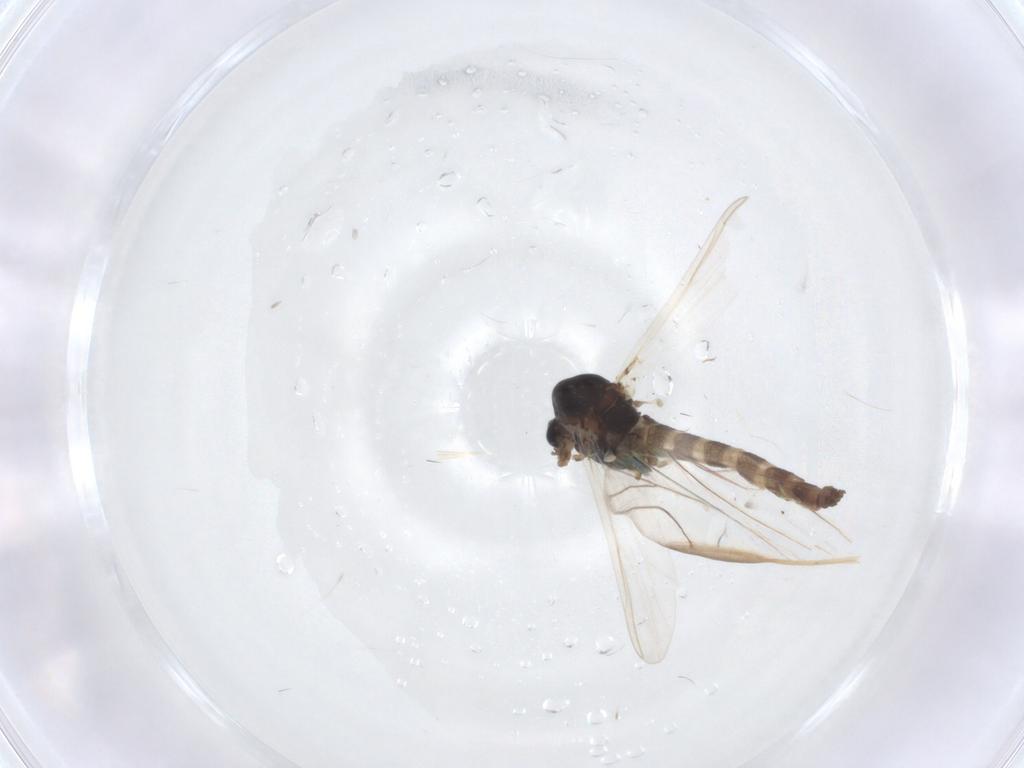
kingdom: Animalia
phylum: Arthropoda
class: Insecta
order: Diptera
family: Chironomidae
